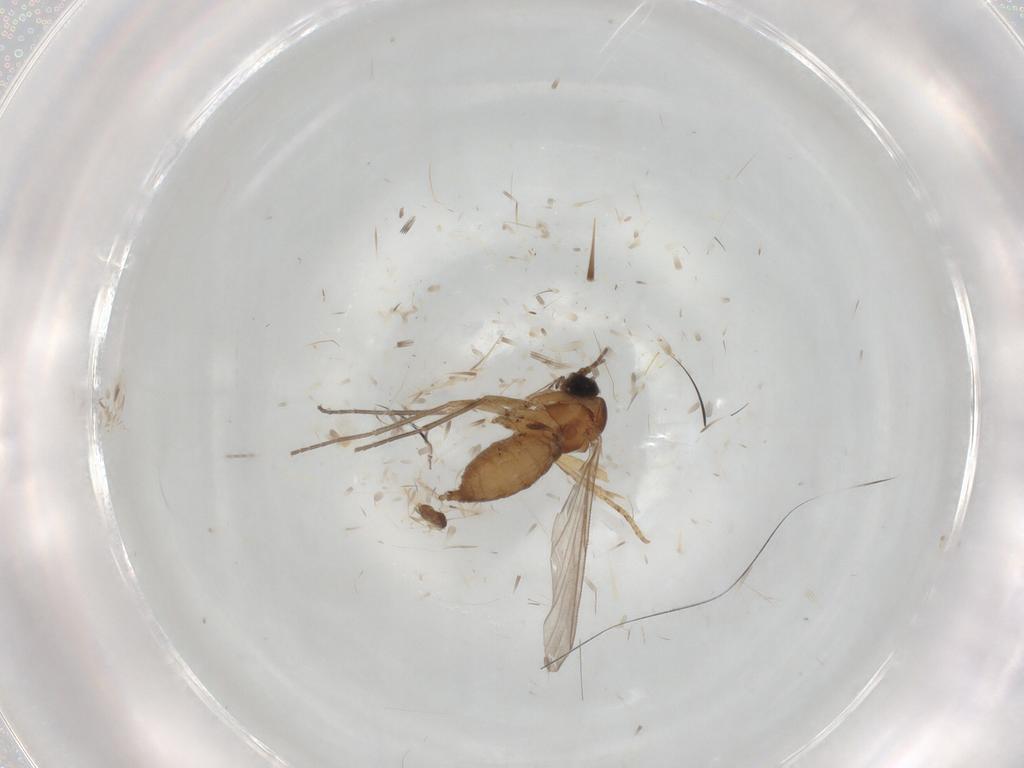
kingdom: Animalia
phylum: Arthropoda
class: Insecta
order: Diptera
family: Sciaridae
